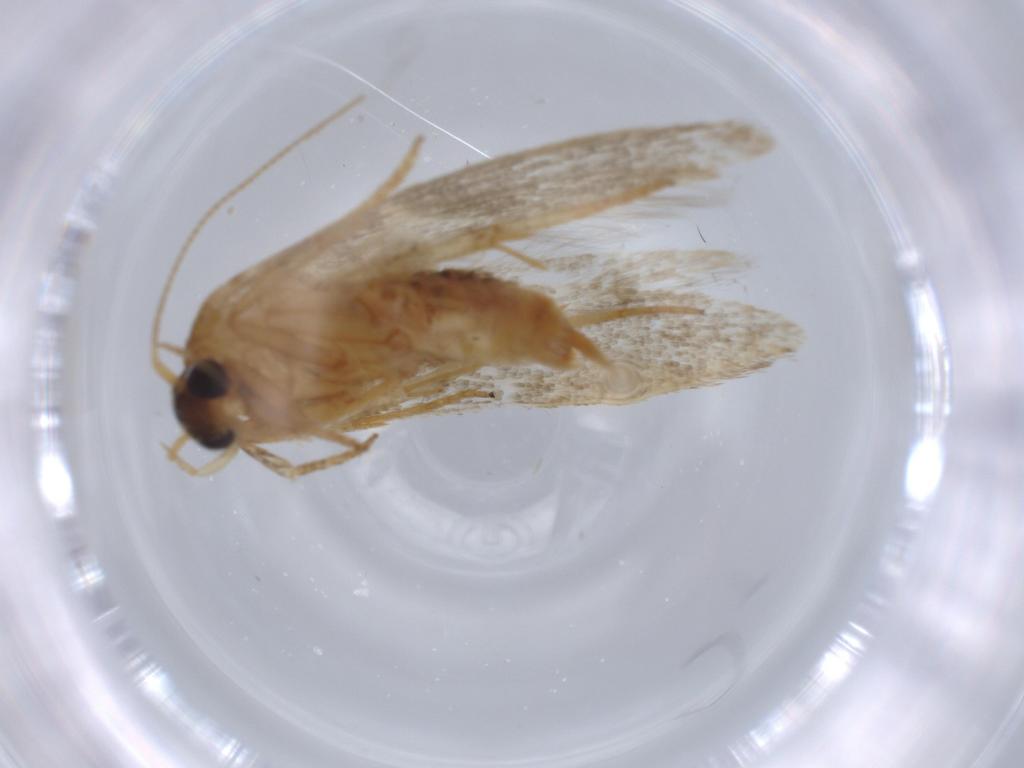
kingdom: Animalia
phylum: Arthropoda
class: Insecta
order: Lepidoptera
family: Blastobasidae
